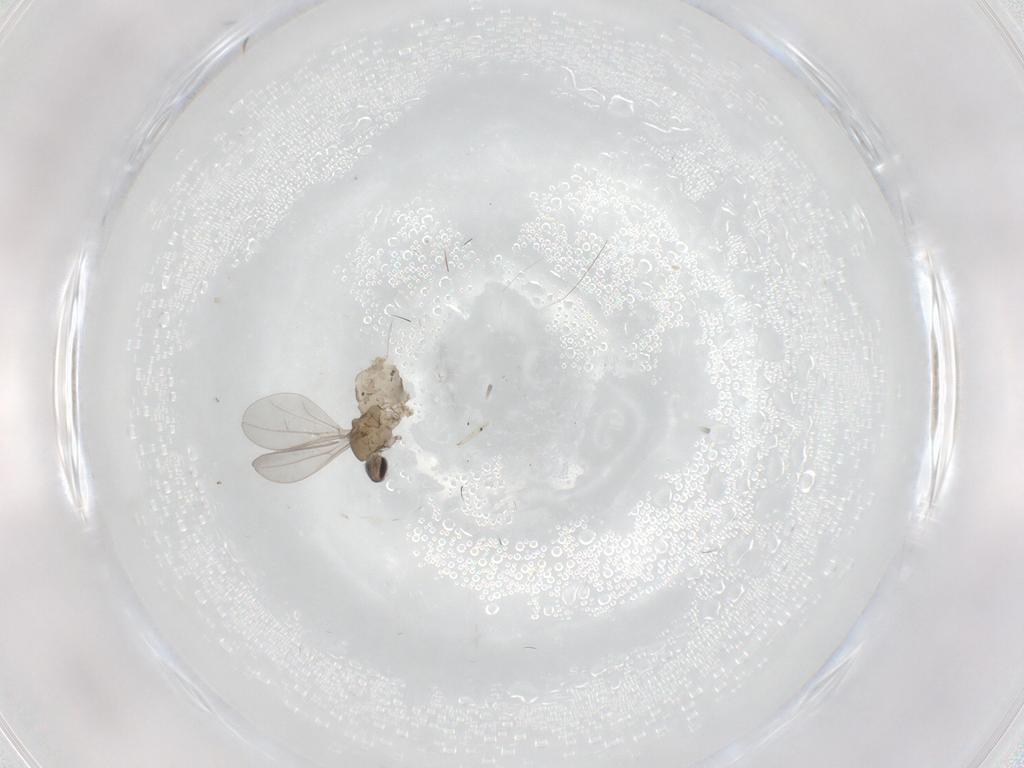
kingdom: Animalia
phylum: Arthropoda
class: Insecta
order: Diptera
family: Cecidomyiidae
